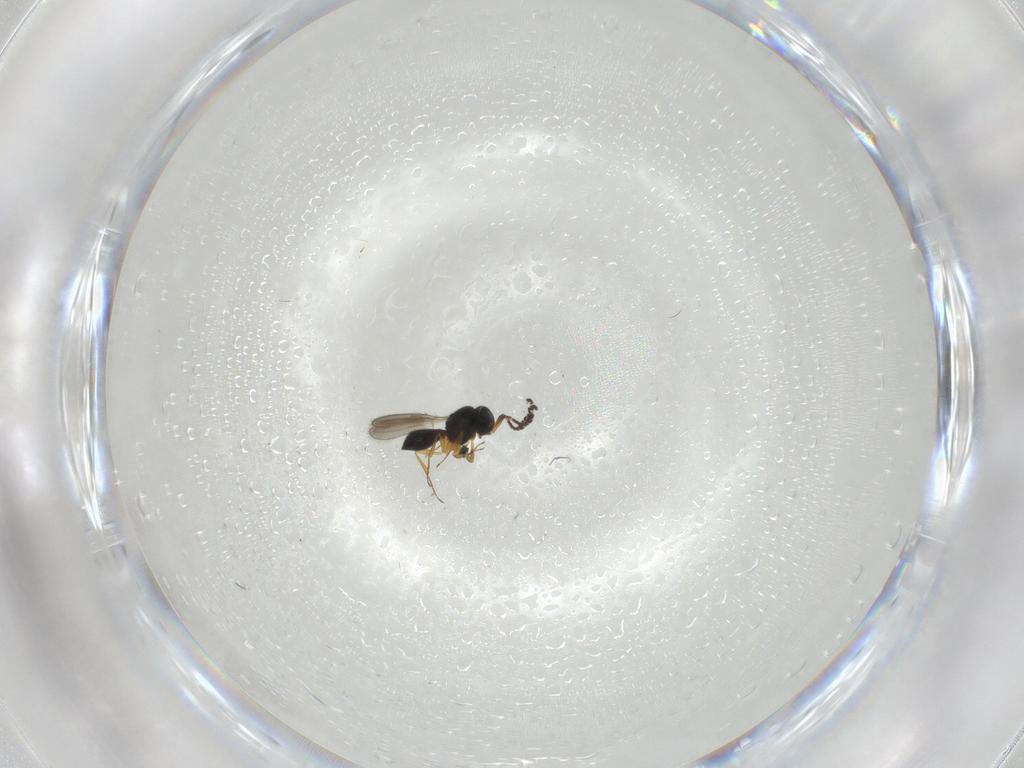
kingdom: Animalia
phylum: Arthropoda
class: Insecta
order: Hymenoptera
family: Scelionidae
